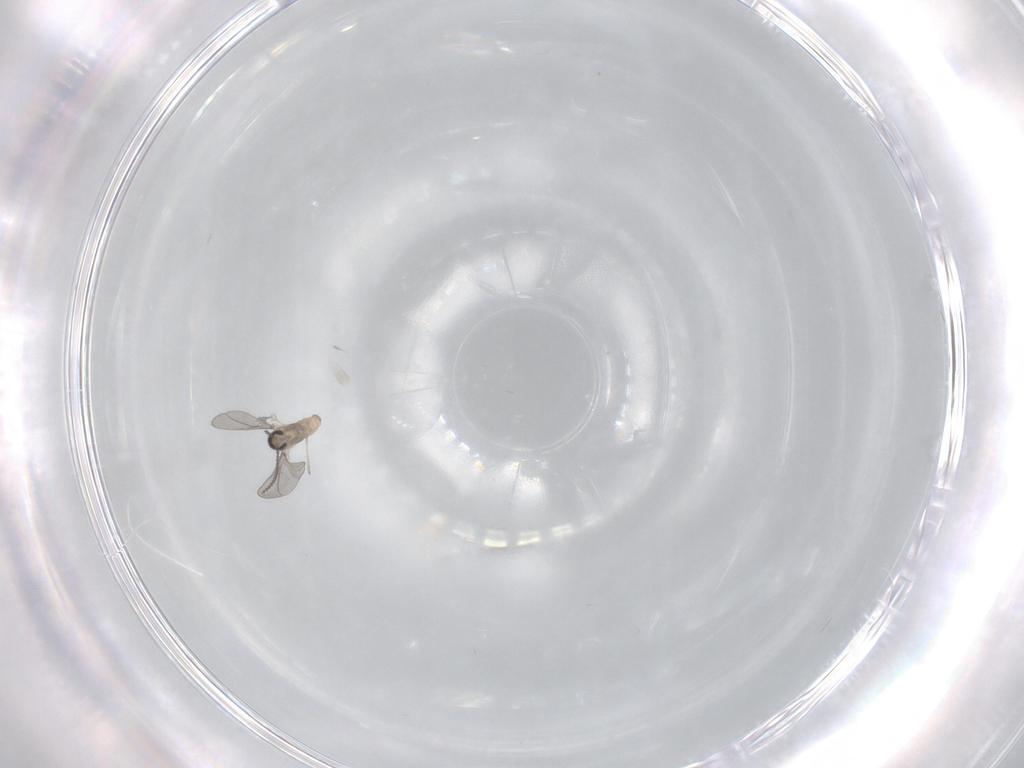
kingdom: Animalia
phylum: Arthropoda
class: Insecta
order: Diptera
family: Cecidomyiidae
